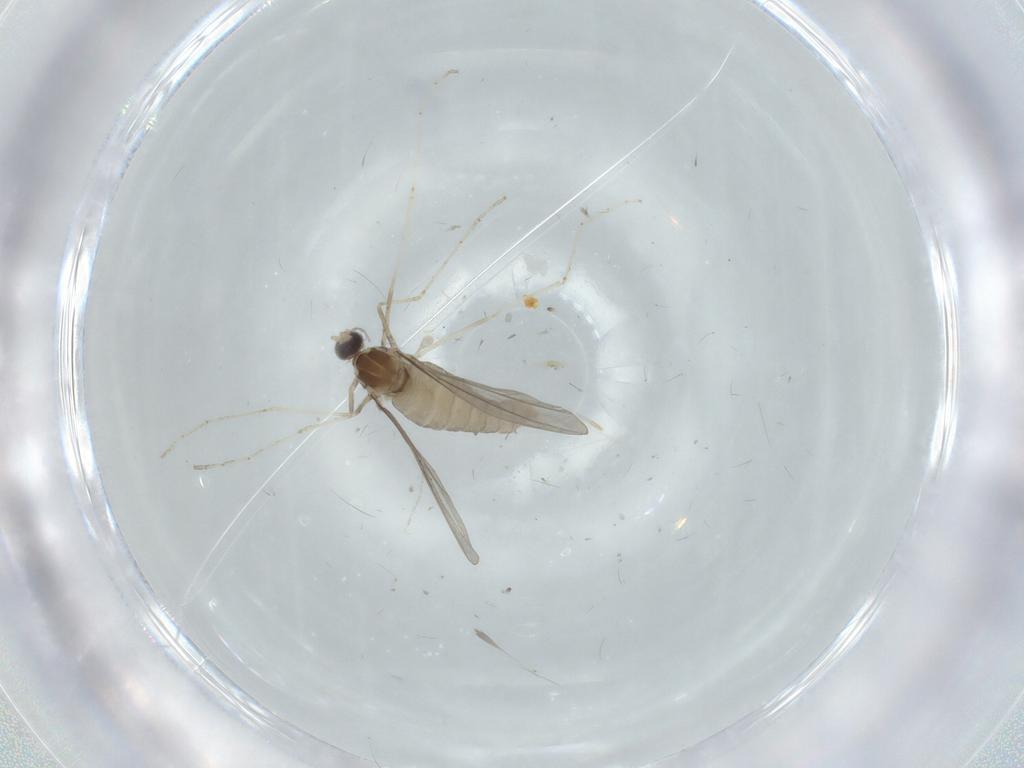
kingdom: Animalia
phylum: Arthropoda
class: Insecta
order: Diptera
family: Cecidomyiidae
